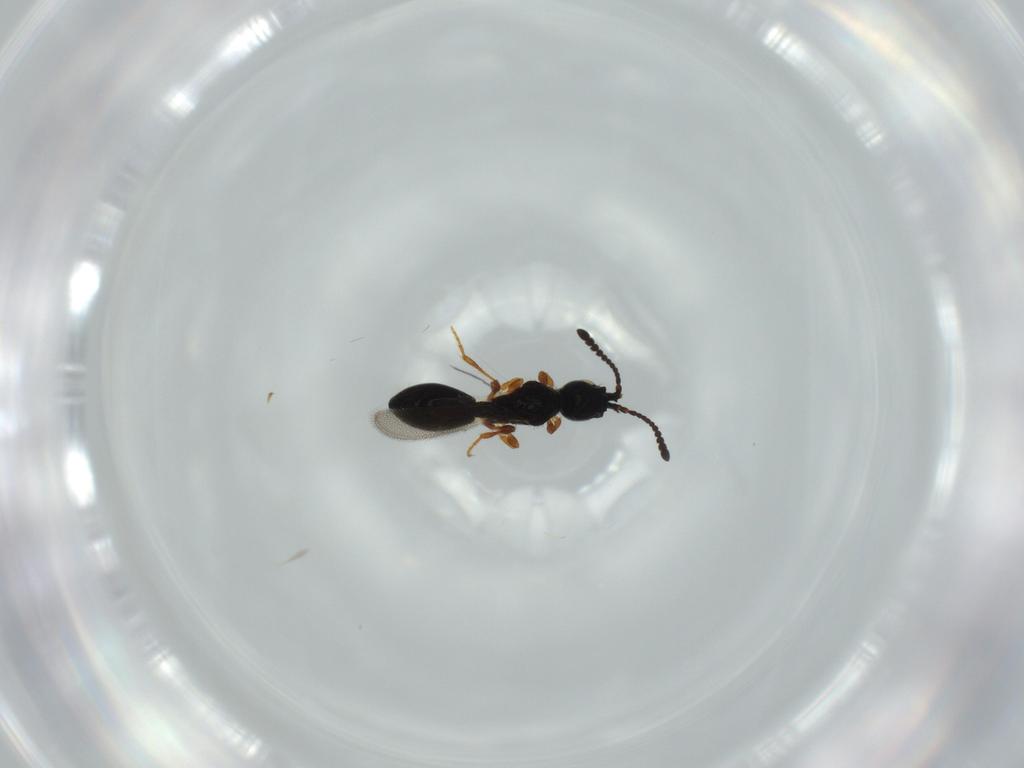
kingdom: Animalia
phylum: Arthropoda
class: Insecta
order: Hymenoptera
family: Diapriidae
